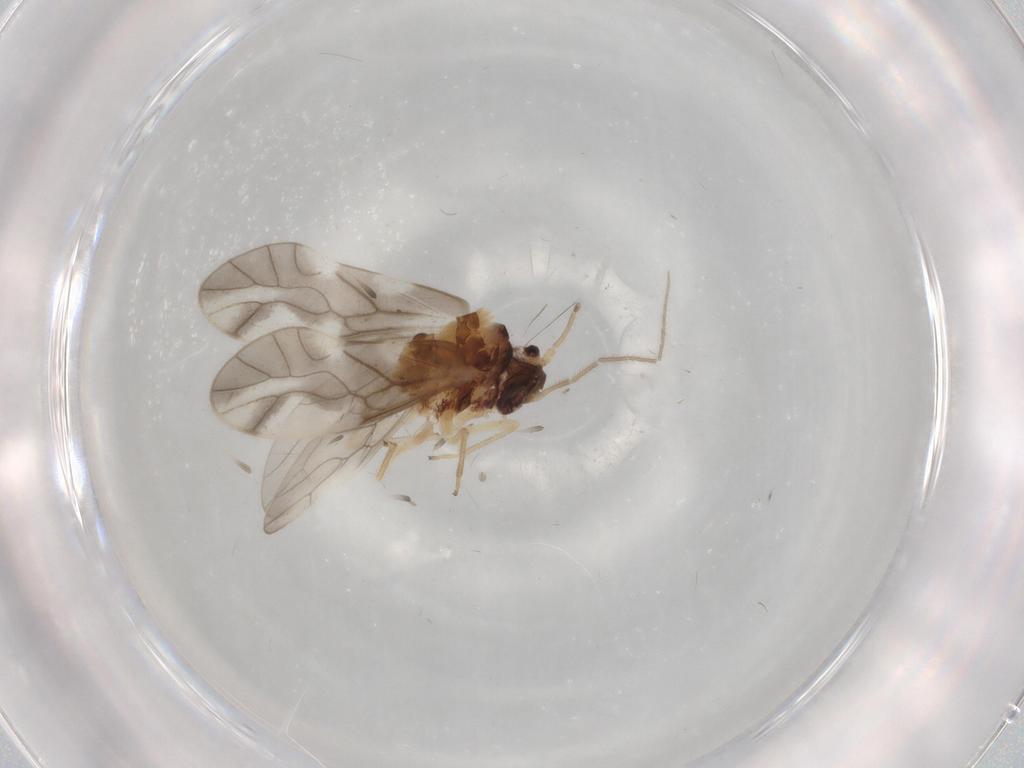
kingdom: Animalia
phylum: Arthropoda
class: Insecta
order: Psocodea
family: Caeciliusidae
